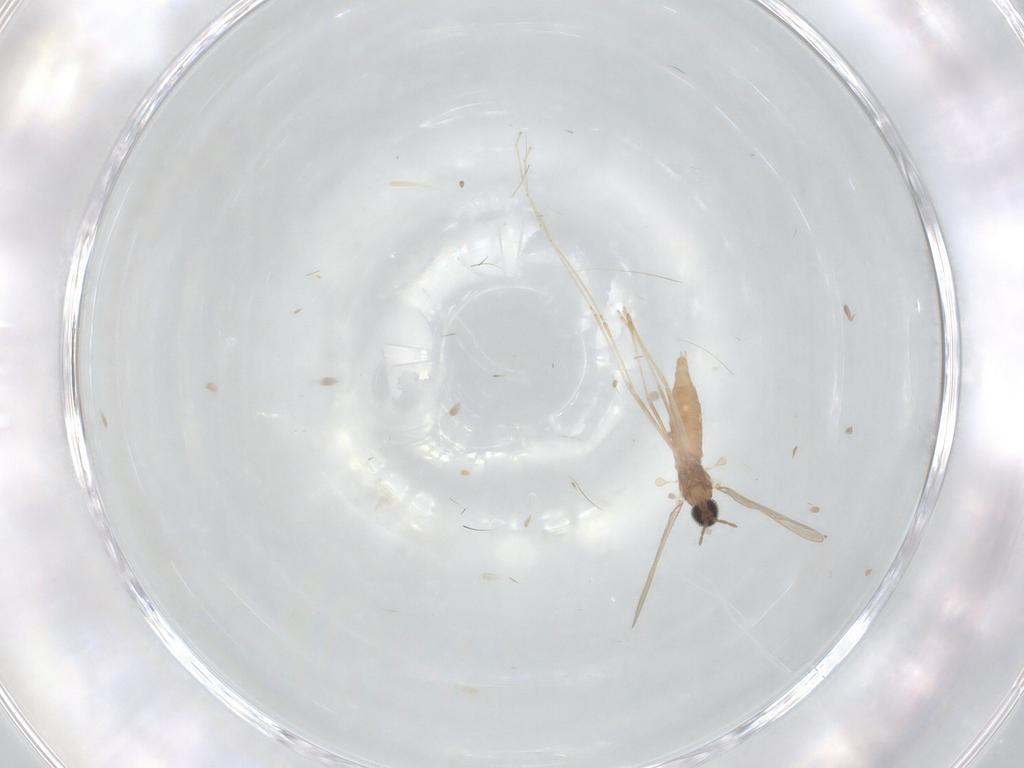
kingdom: Animalia
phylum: Arthropoda
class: Insecta
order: Diptera
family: Cecidomyiidae
